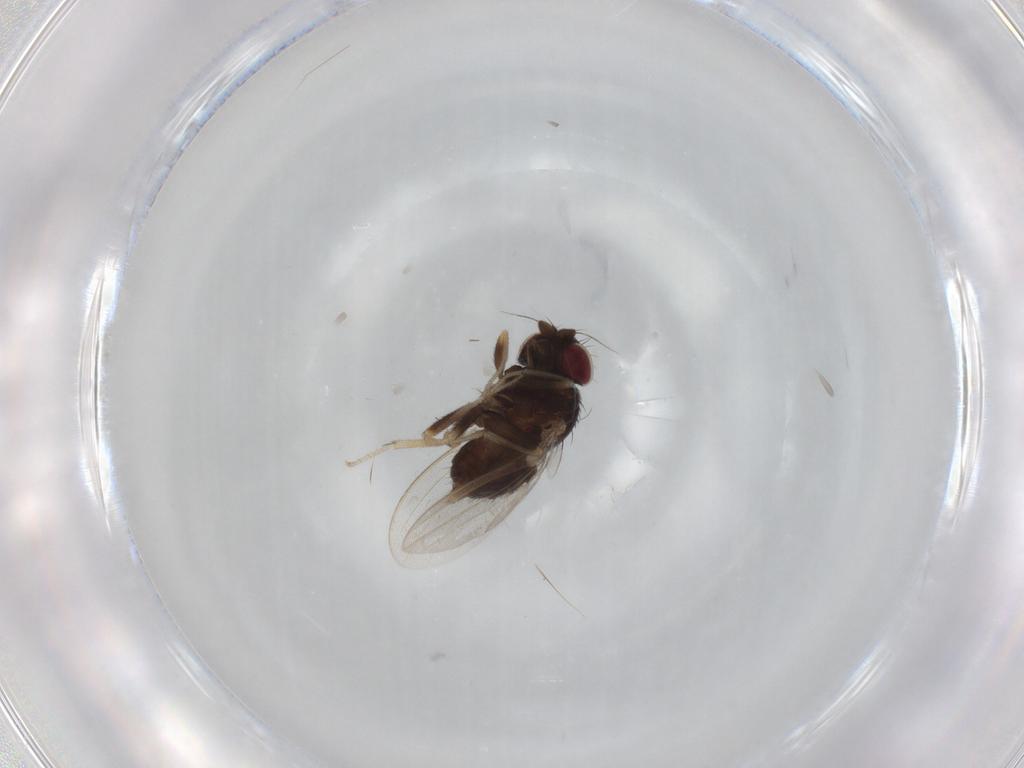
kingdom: Animalia
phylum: Arthropoda
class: Insecta
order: Diptera
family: Milichiidae
